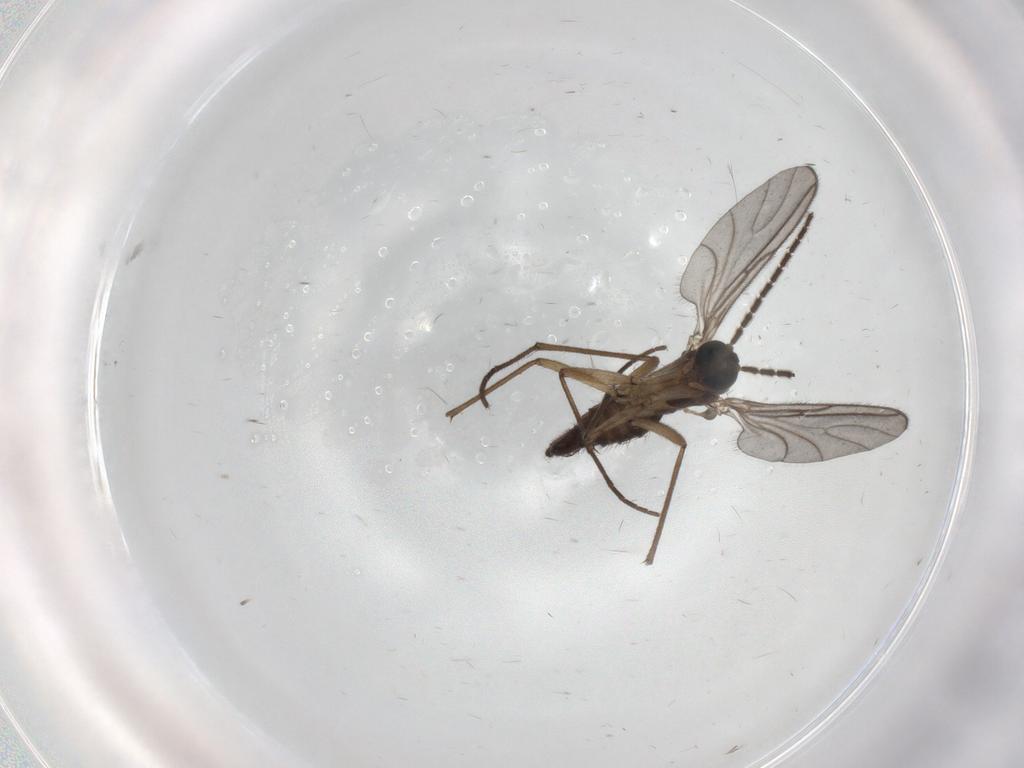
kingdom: Animalia
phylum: Arthropoda
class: Insecta
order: Diptera
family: Sciaridae
